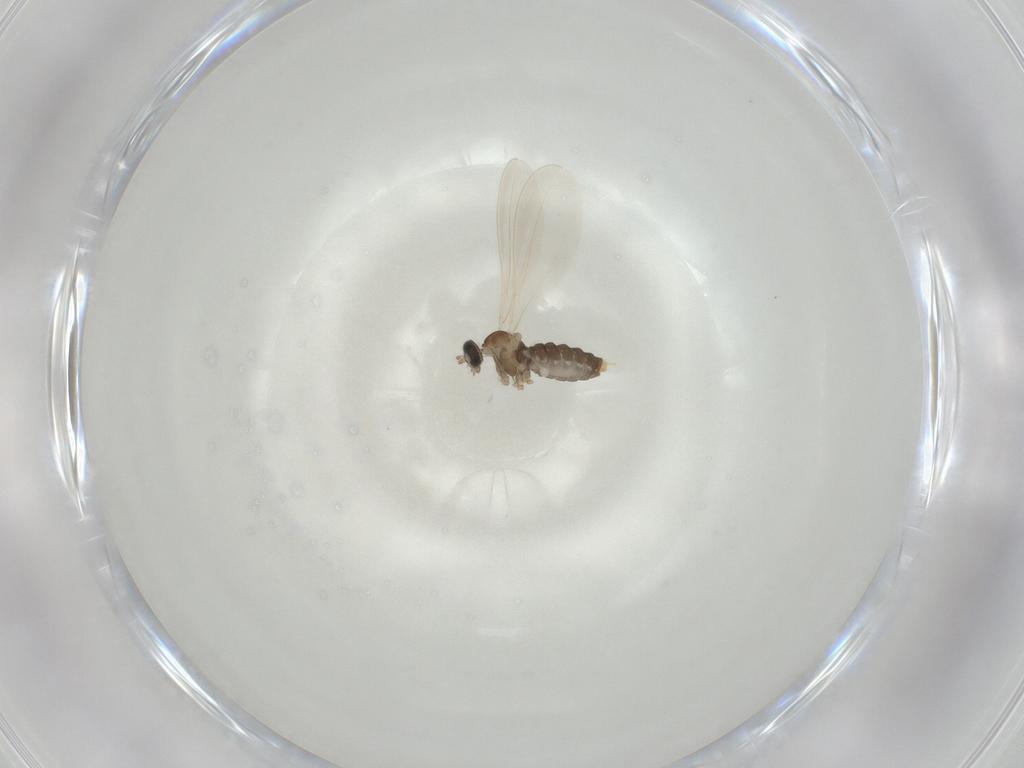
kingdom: Animalia
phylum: Arthropoda
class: Insecta
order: Diptera
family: Cecidomyiidae
